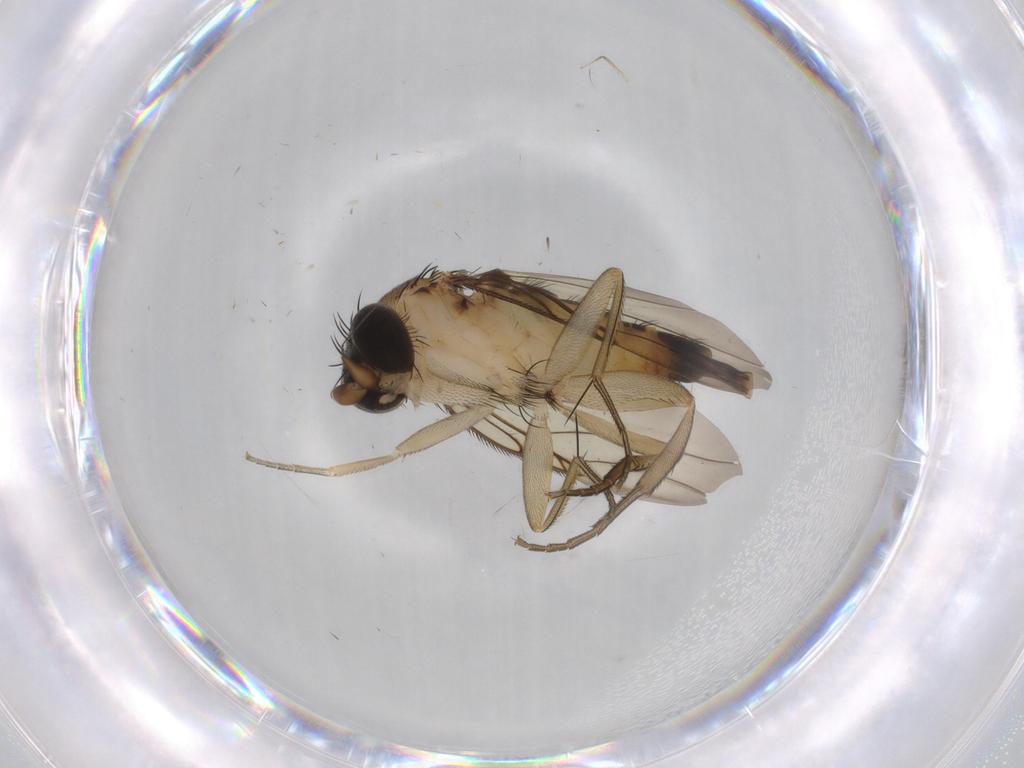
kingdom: Animalia
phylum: Arthropoda
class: Insecta
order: Diptera
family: Phoridae
